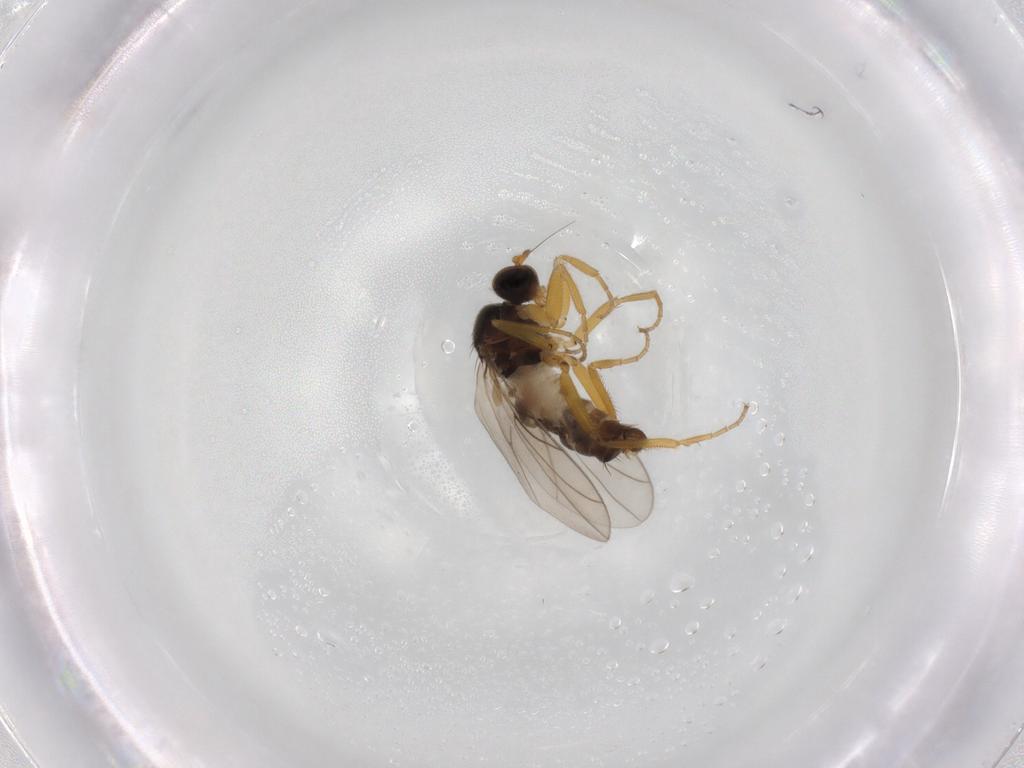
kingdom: Animalia
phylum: Arthropoda
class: Insecta
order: Diptera
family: Hybotidae
